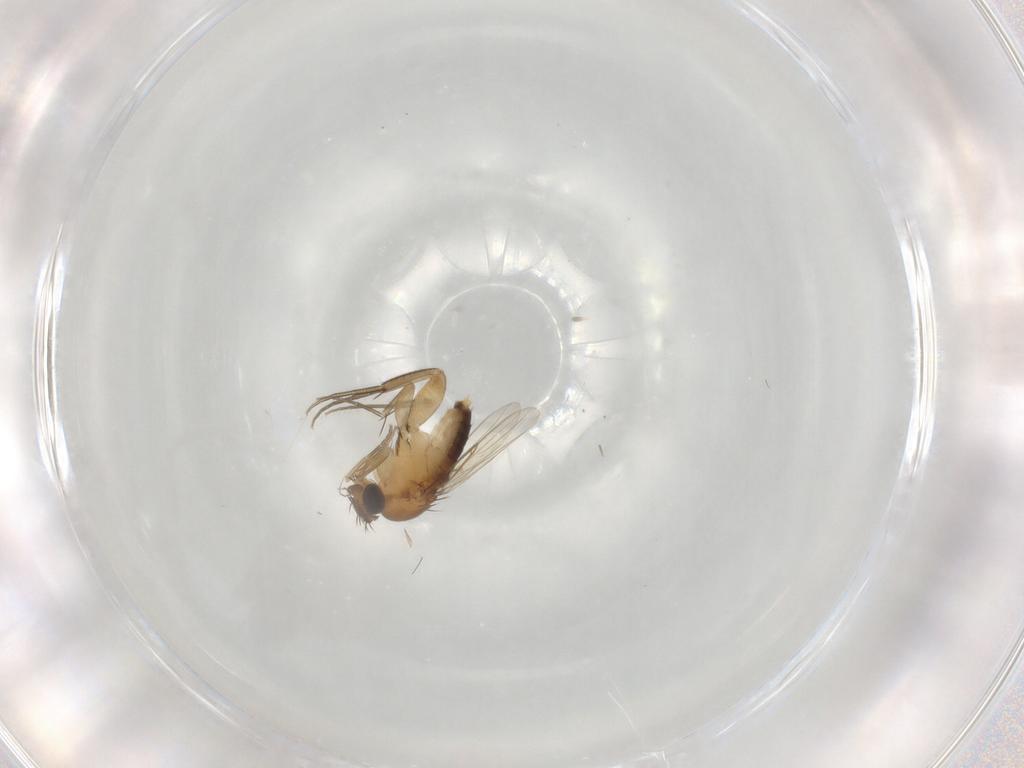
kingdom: Animalia
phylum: Arthropoda
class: Insecta
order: Diptera
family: Phoridae
